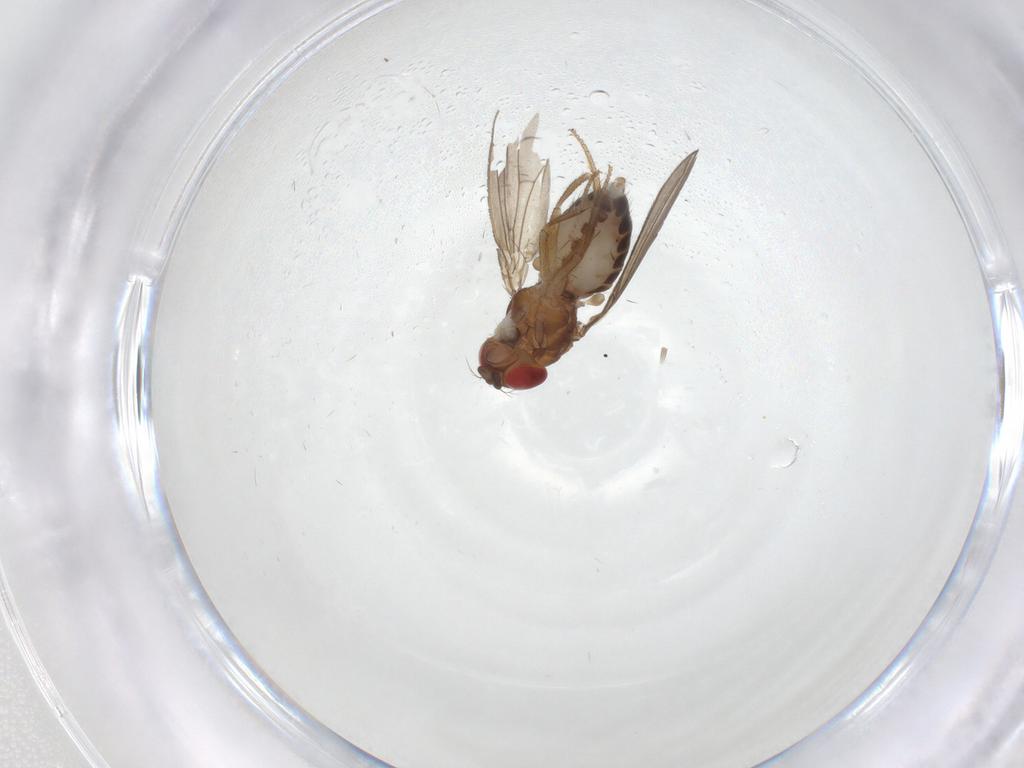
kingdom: Animalia
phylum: Arthropoda
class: Insecta
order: Diptera
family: Drosophilidae
